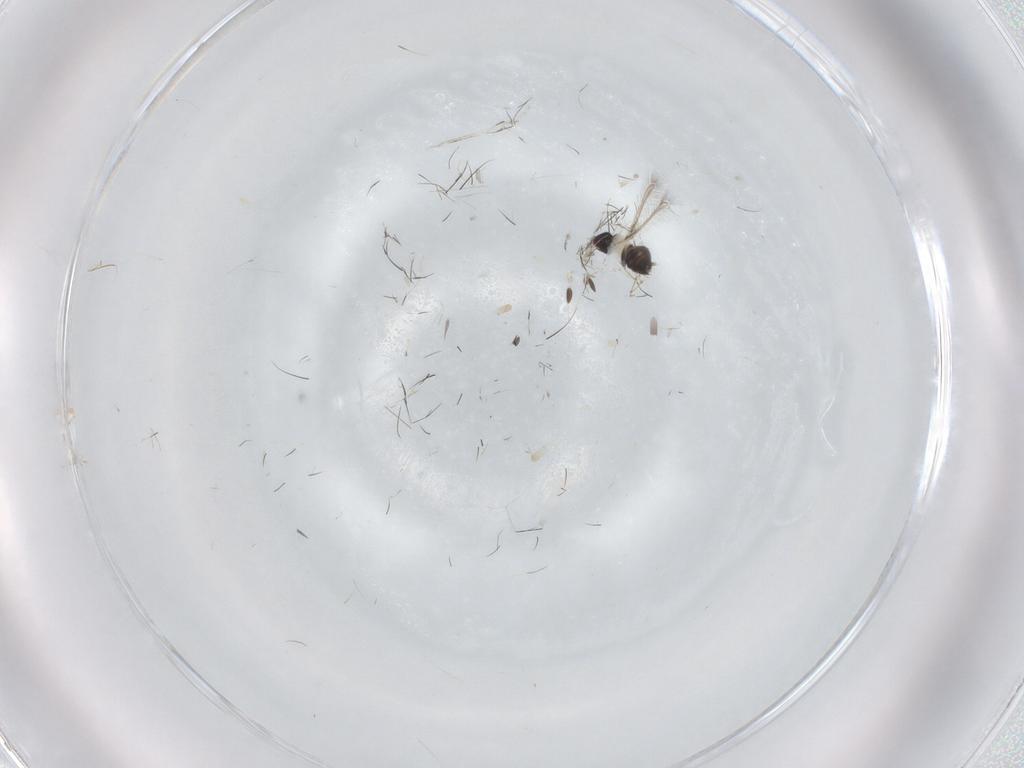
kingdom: Animalia
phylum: Arthropoda
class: Insecta
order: Hymenoptera
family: Mymaridae
